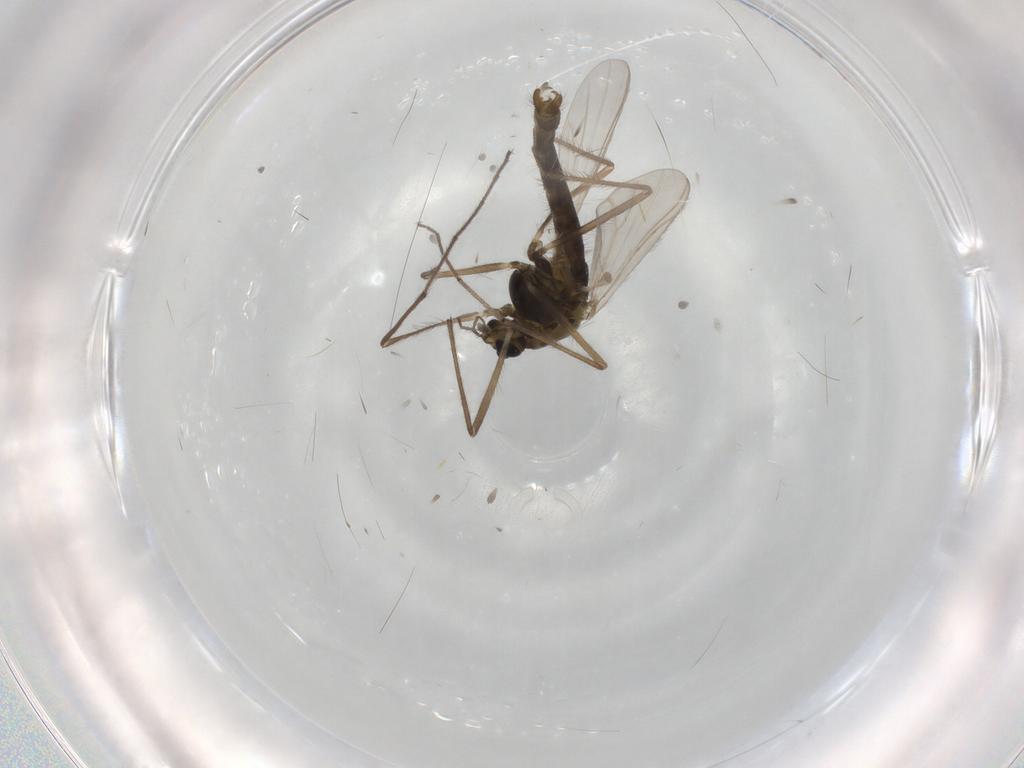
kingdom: Animalia
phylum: Arthropoda
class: Insecta
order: Diptera
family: Chironomidae
